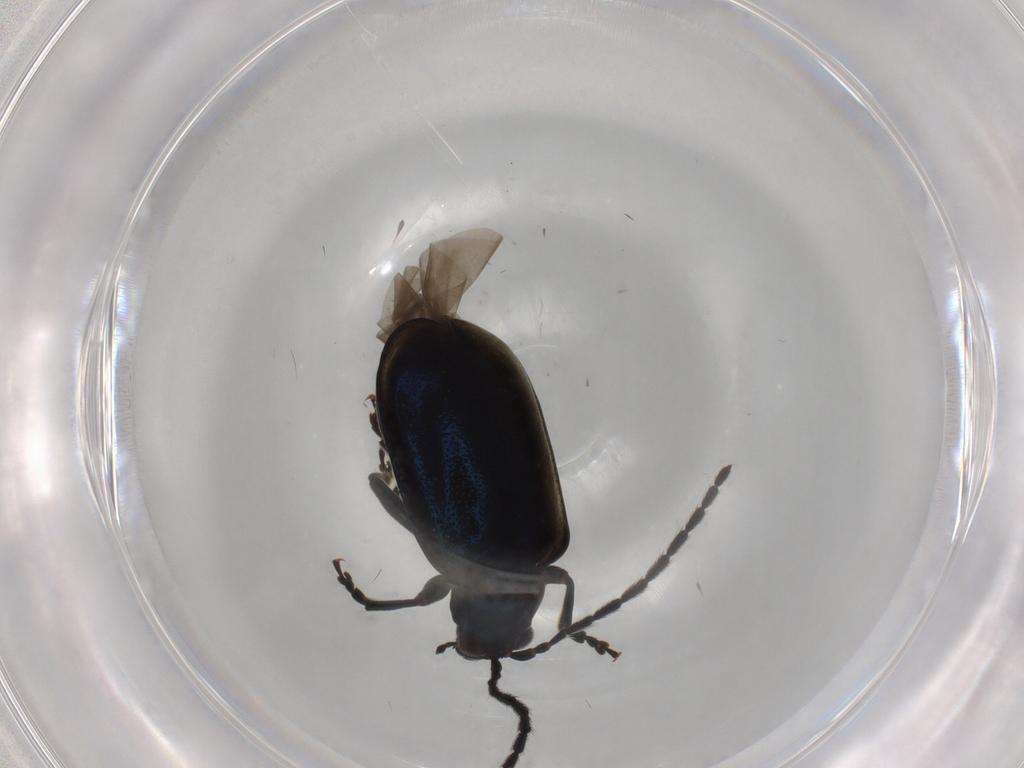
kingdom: Animalia
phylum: Arthropoda
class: Insecta
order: Coleoptera
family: Chrysomelidae
